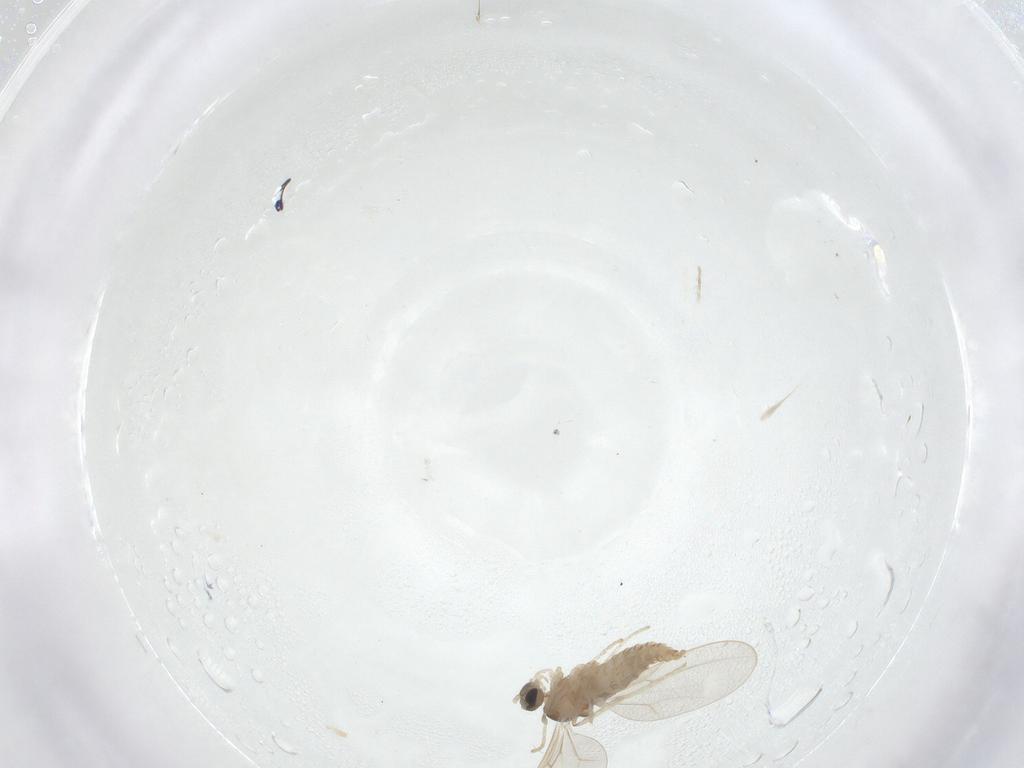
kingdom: Animalia
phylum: Arthropoda
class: Insecta
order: Diptera
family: Cecidomyiidae
